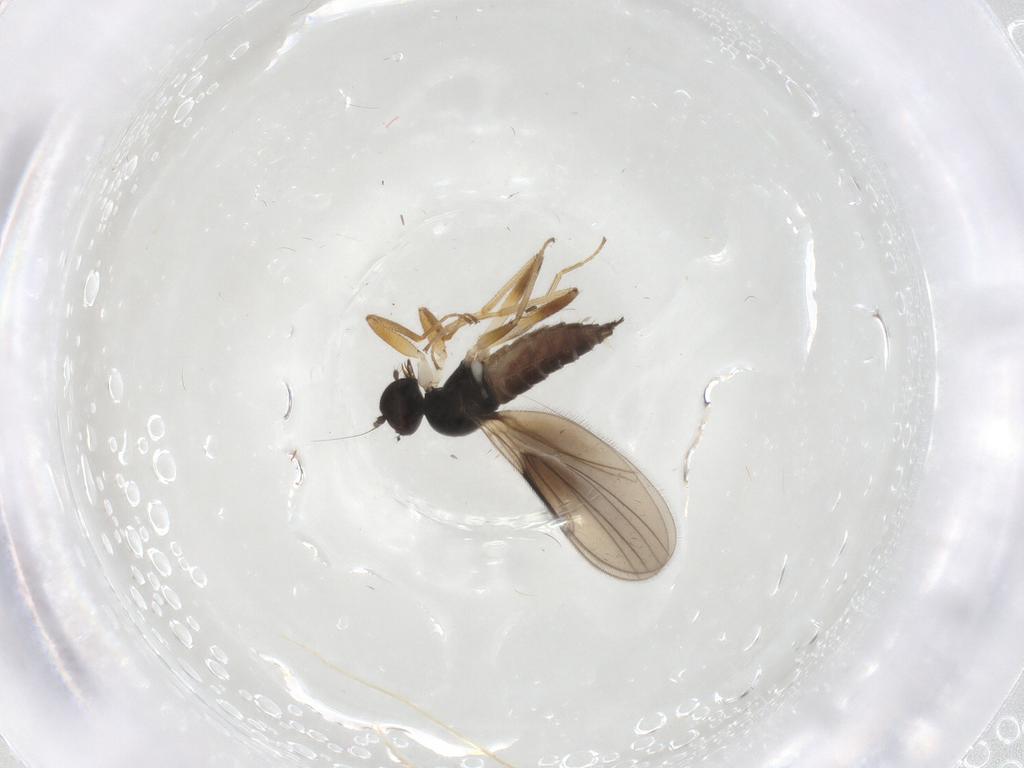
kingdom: Animalia
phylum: Arthropoda
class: Insecta
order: Diptera
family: Hybotidae
